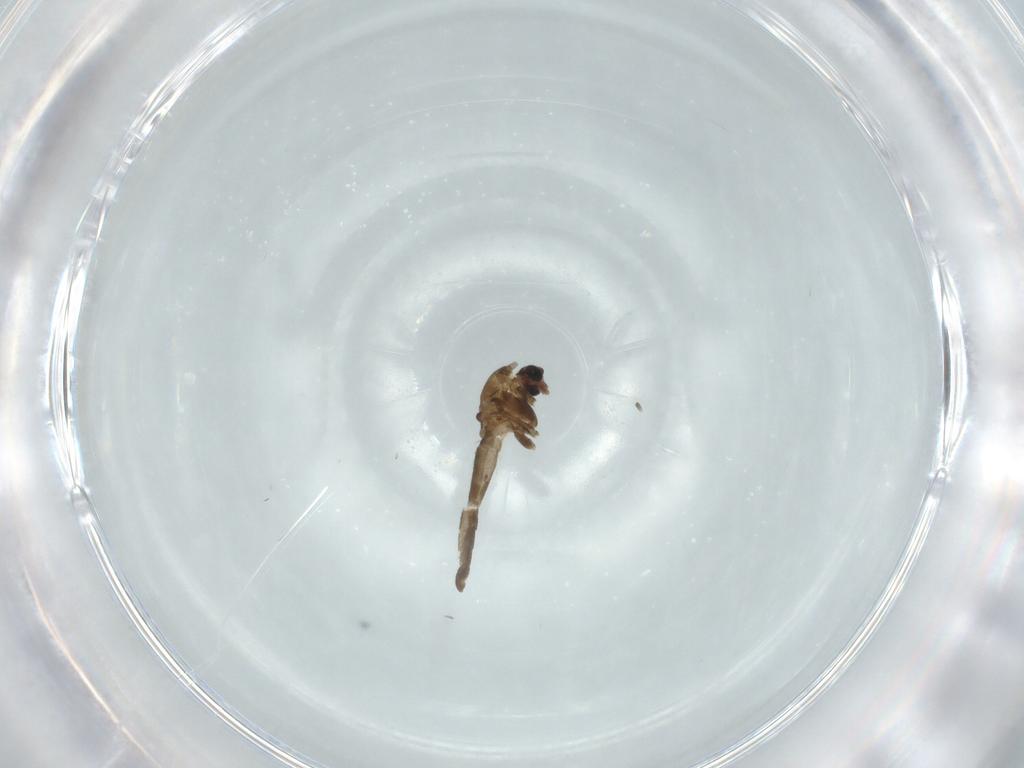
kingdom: Animalia
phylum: Arthropoda
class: Insecta
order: Diptera
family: Chironomidae
